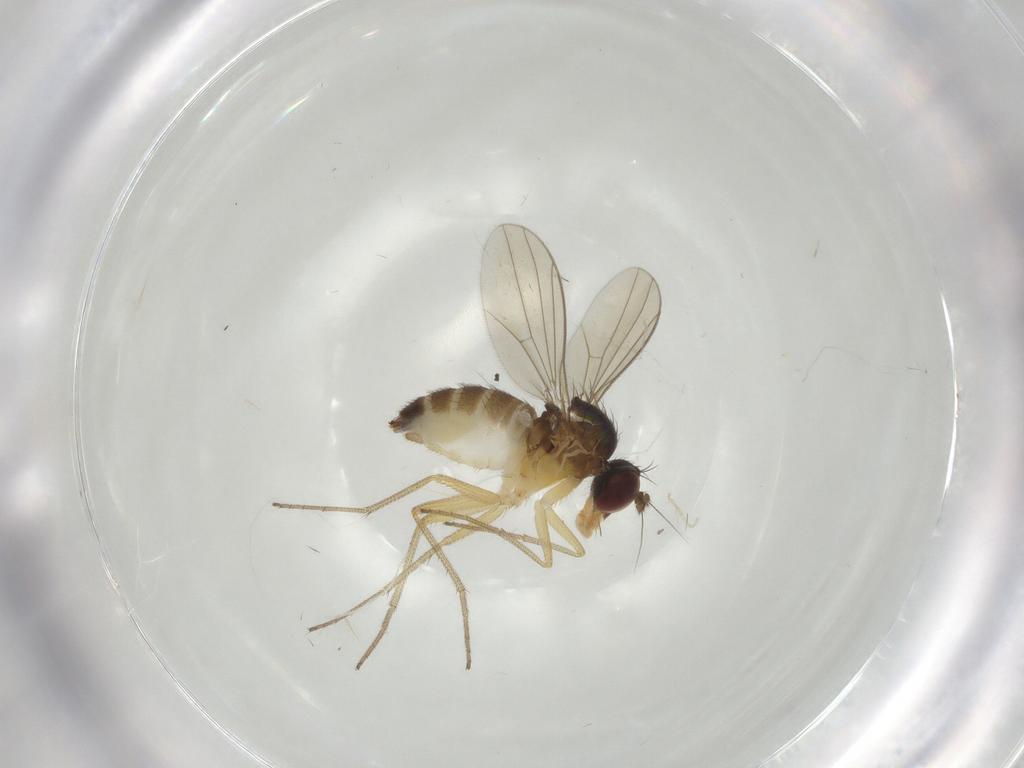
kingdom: Animalia
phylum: Arthropoda
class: Insecta
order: Diptera
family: Dolichopodidae
